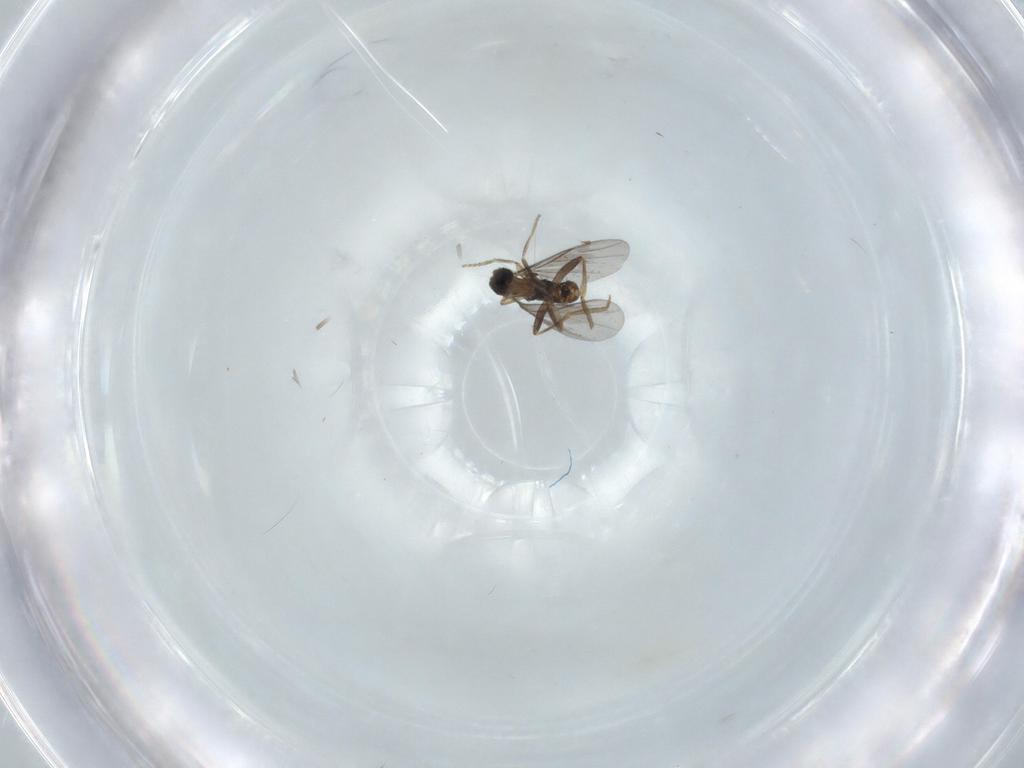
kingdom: Animalia
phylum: Arthropoda
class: Insecta
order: Diptera
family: Chironomidae
